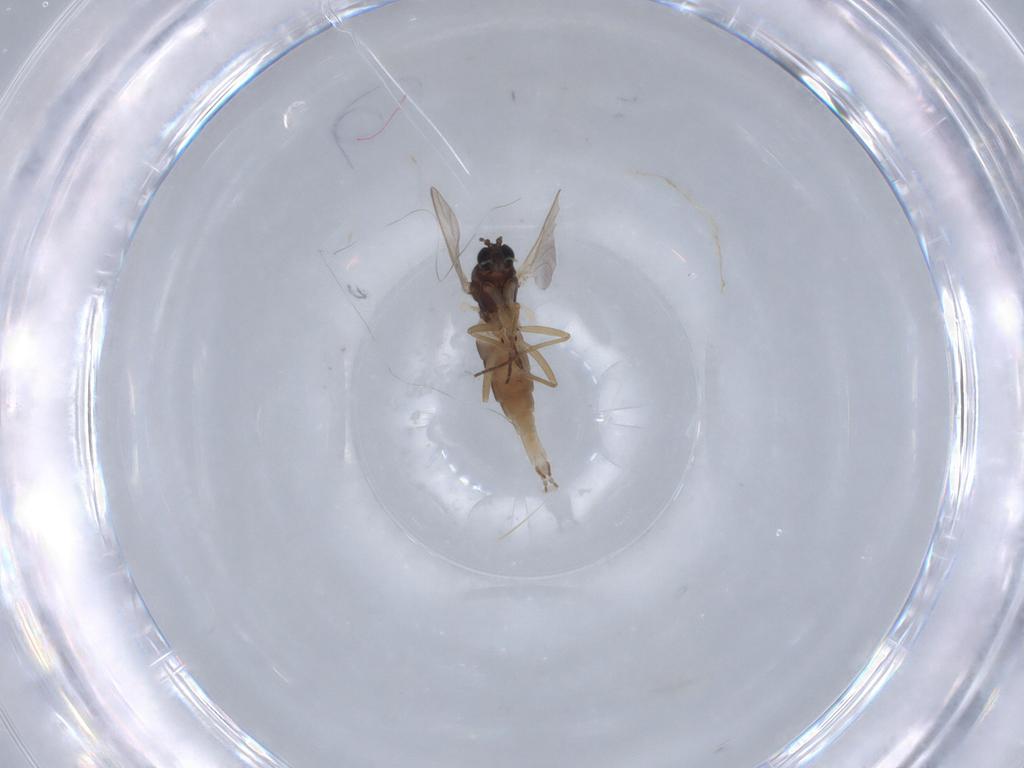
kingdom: Animalia
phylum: Arthropoda
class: Insecta
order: Diptera
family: Sciaridae
